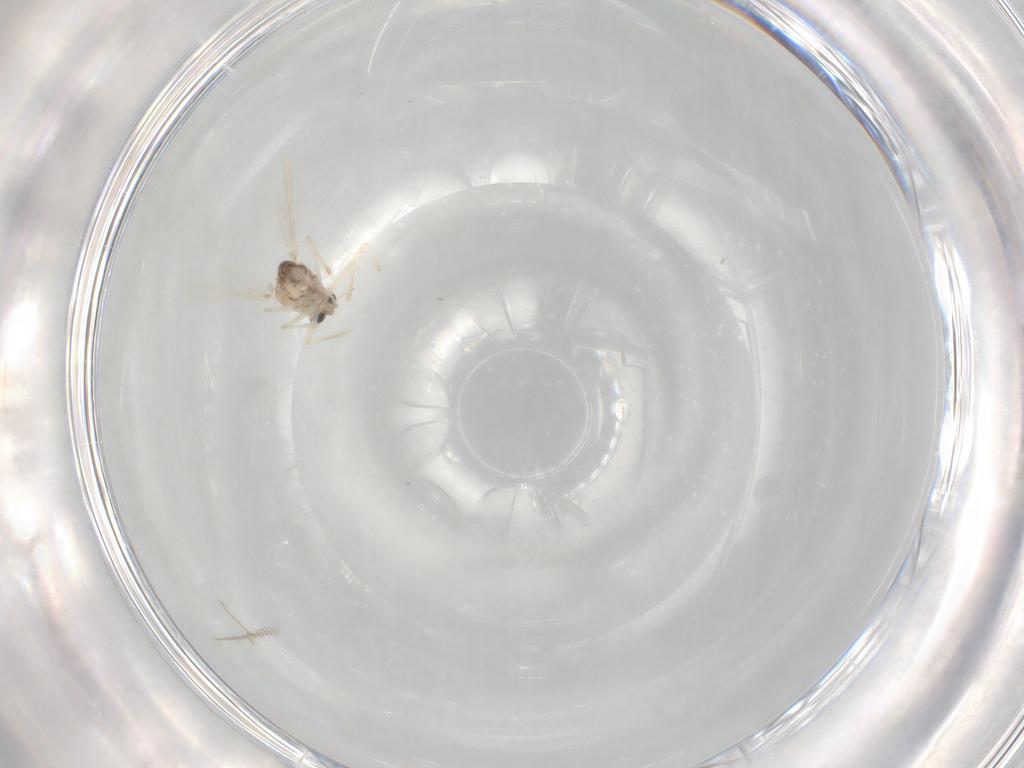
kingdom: Animalia
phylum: Arthropoda
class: Insecta
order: Diptera
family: Chironomidae
